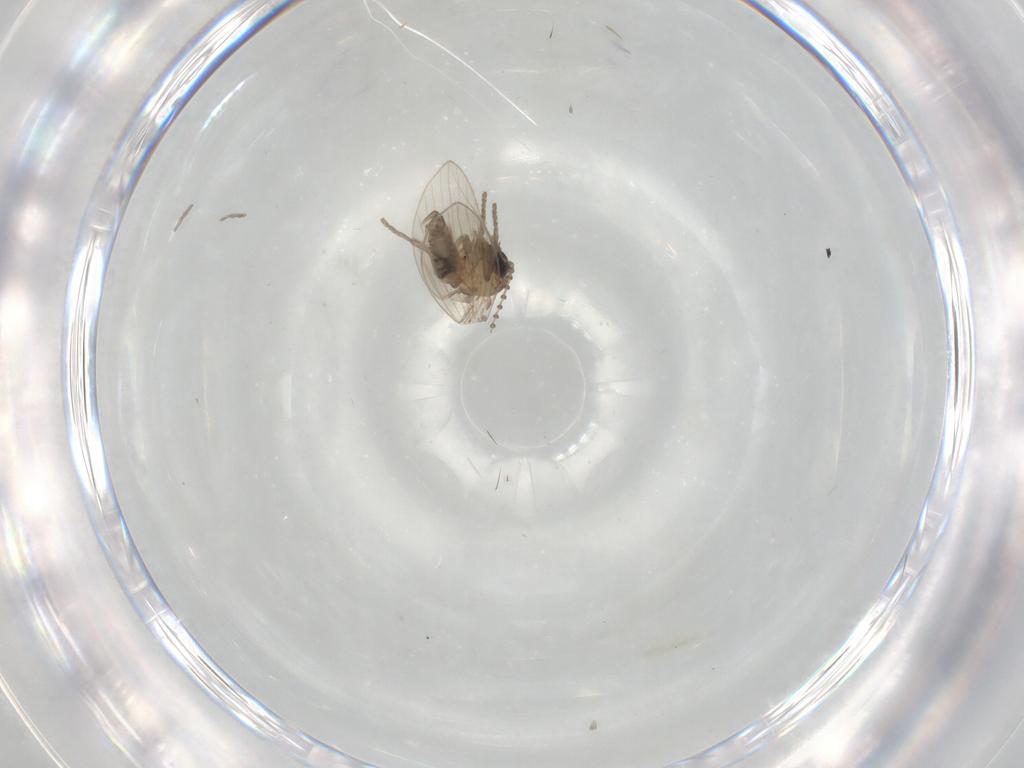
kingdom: Animalia
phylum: Arthropoda
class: Insecta
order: Diptera
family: Psychodidae
